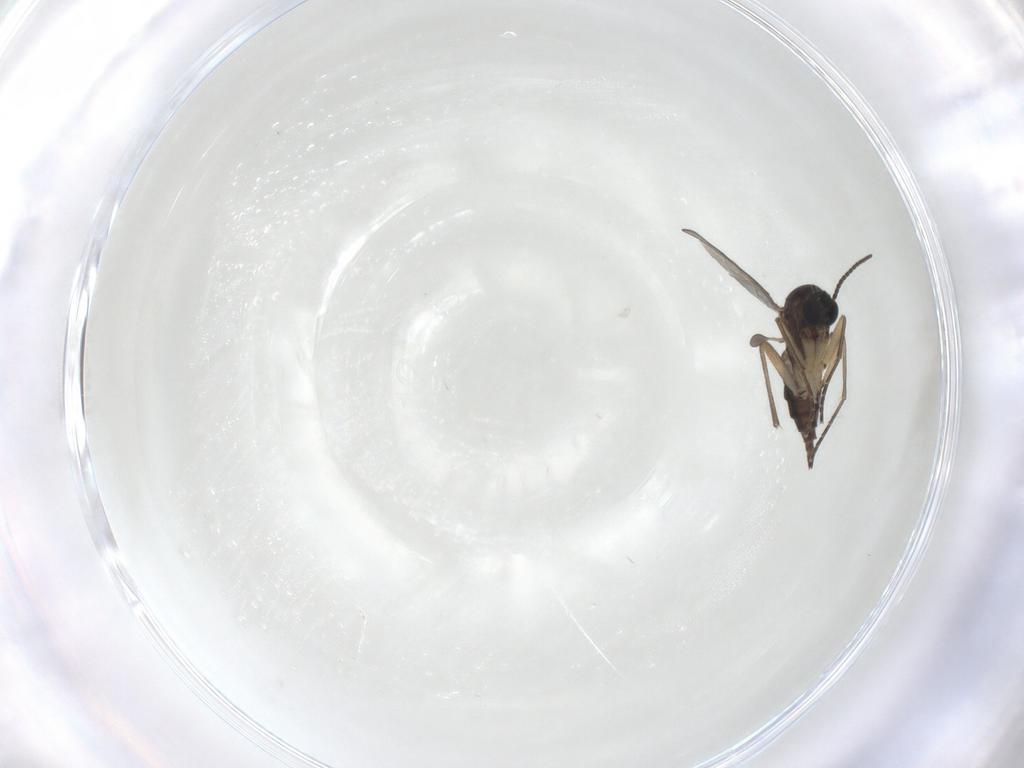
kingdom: Animalia
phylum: Arthropoda
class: Insecta
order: Diptera
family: Sciaridae
